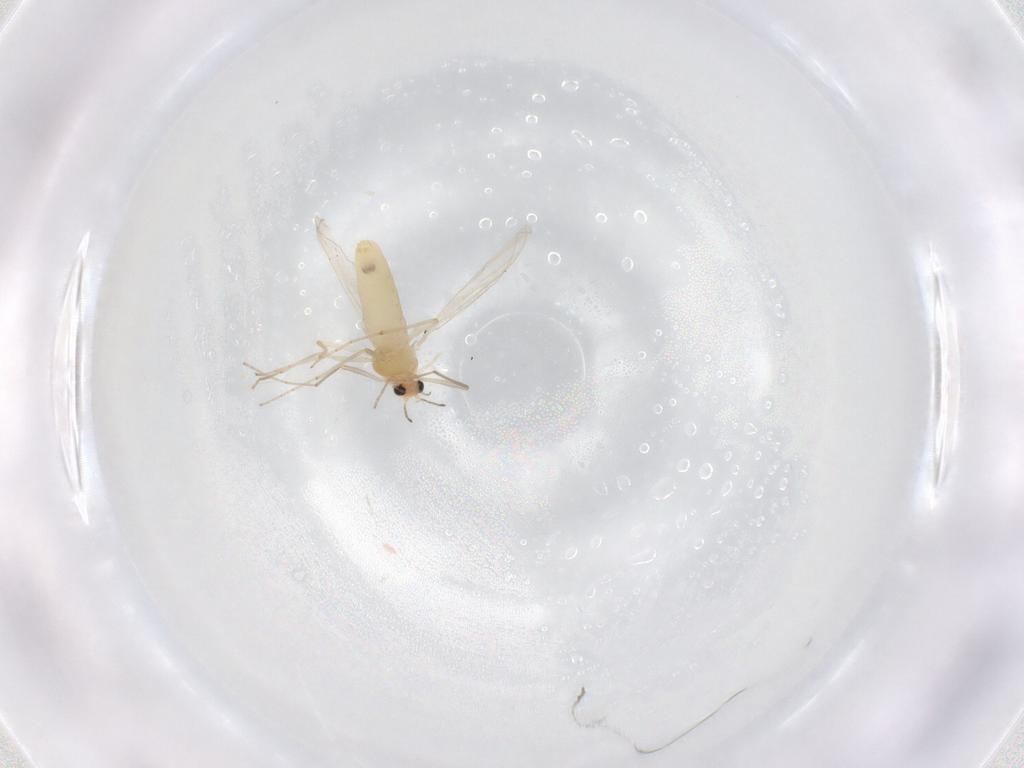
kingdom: Animalia
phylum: Arthropoda
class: Insecta
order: Diptera
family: Chironomidae
